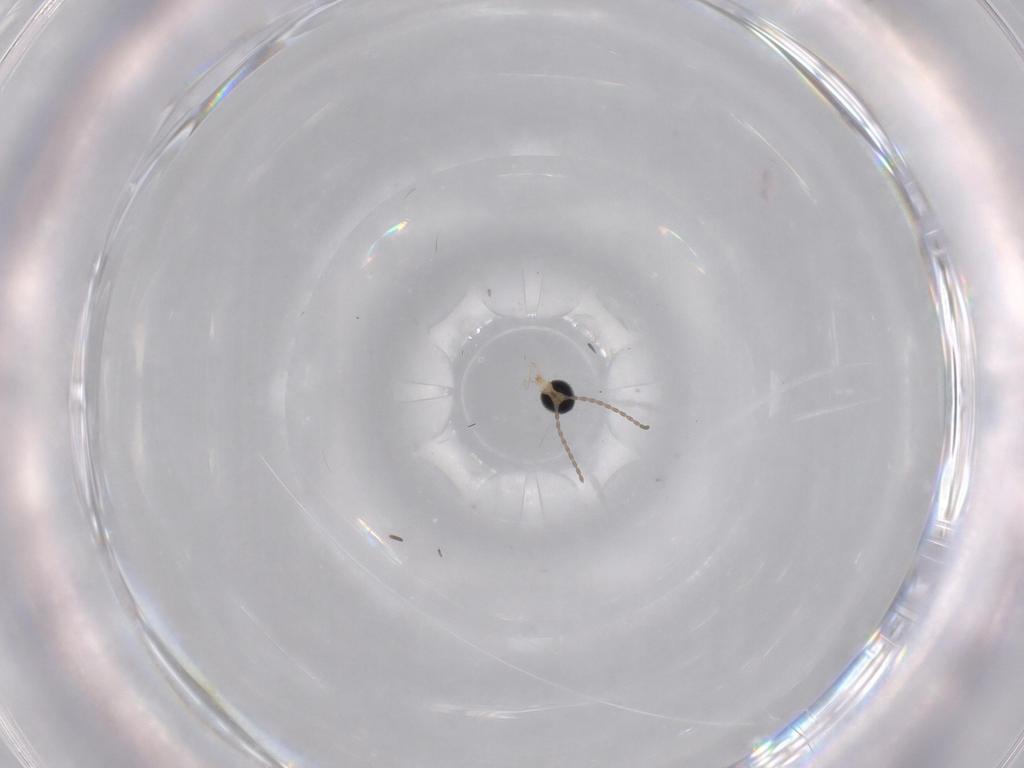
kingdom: Animalia
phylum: Arthropoda
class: Insecta
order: Diptera
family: Cecidomyiidae
